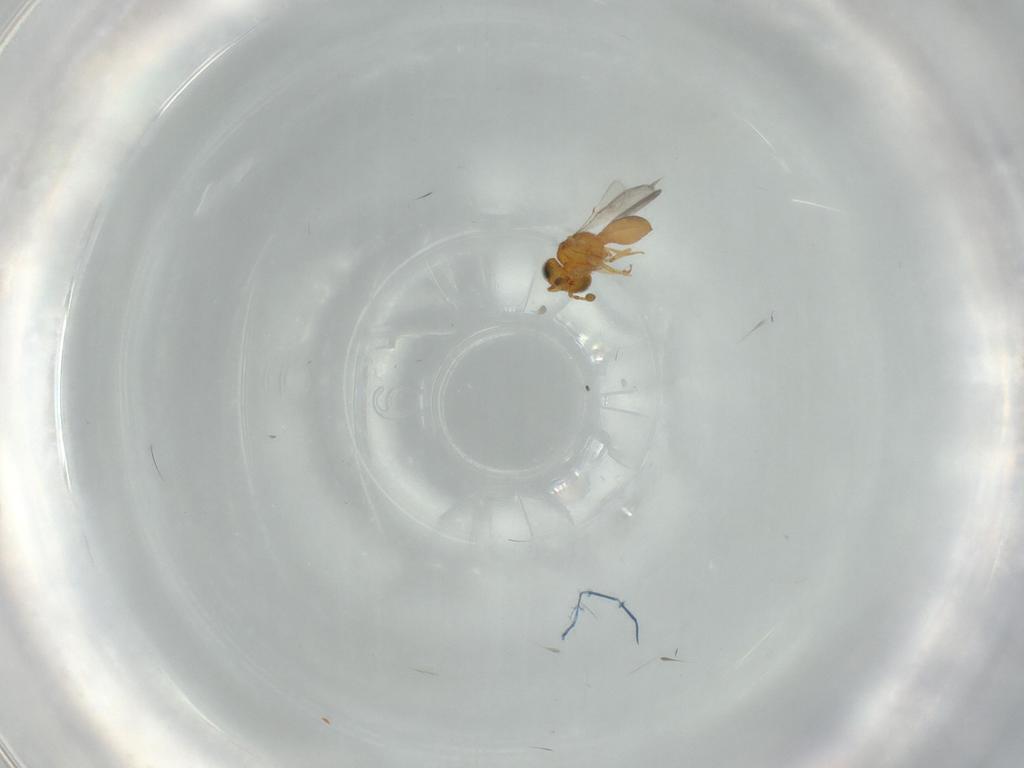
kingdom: Animalia
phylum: Arthropoda
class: Insecta
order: Hymenoptera
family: Scelionidae
